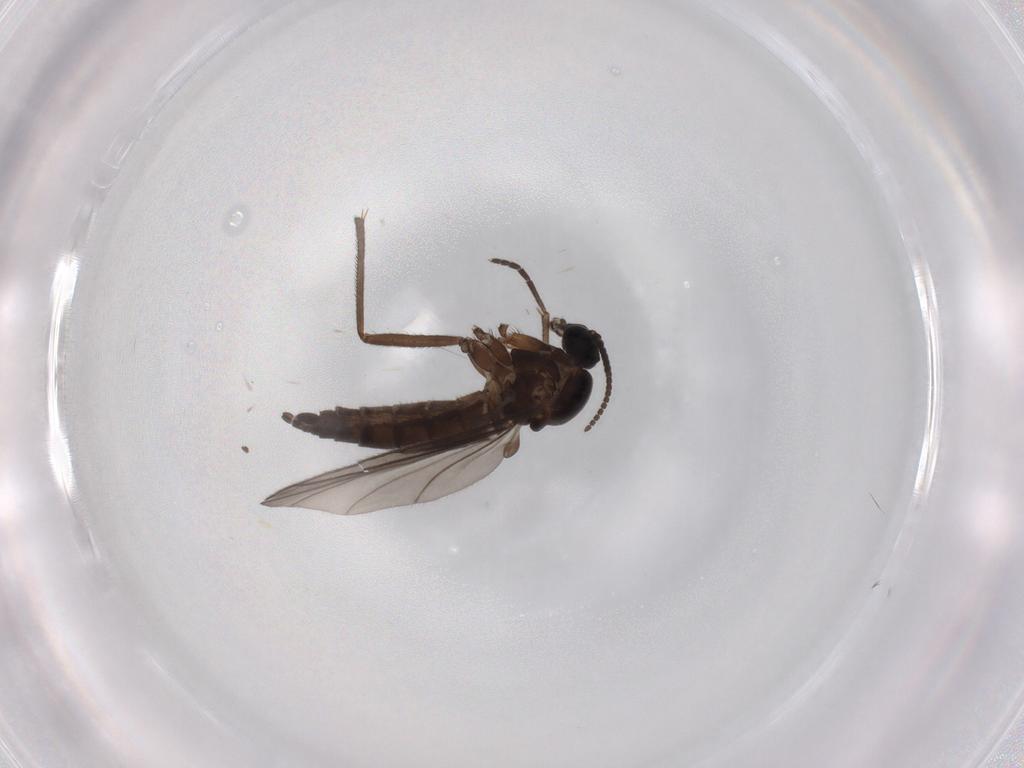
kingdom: Animalia
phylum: Arthropoda
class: Insecta
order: Diptera
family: Sciaridae
